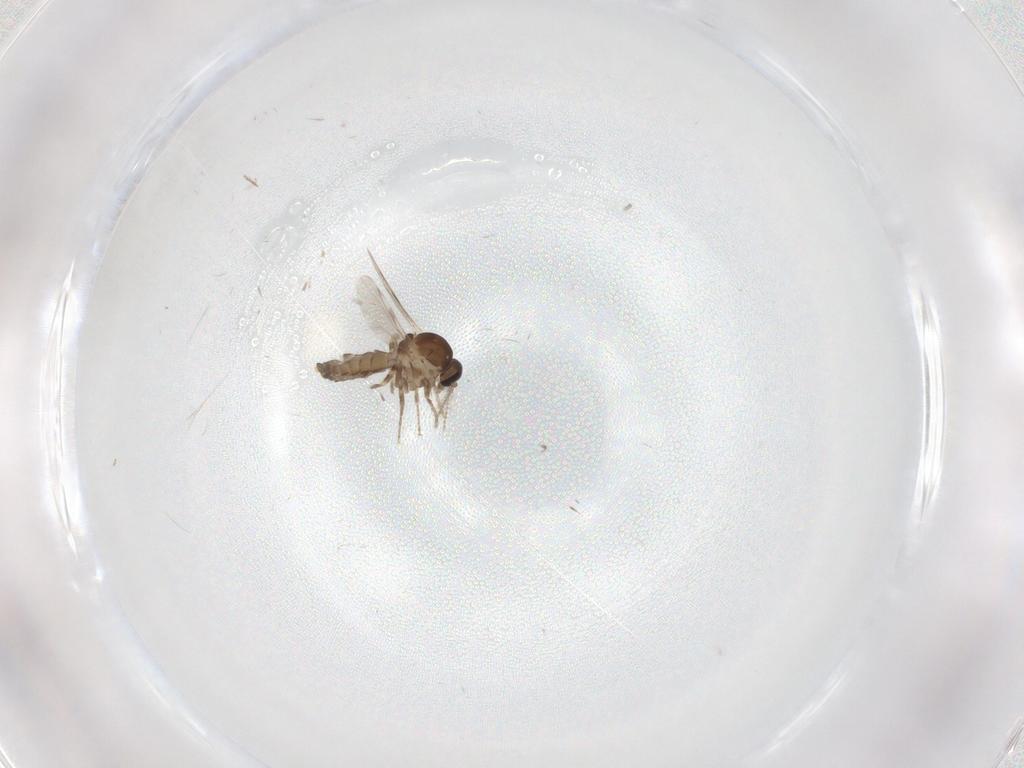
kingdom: Animalia
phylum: Arthropoda
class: Insecta
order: Diptera
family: Ceratopogonidae
